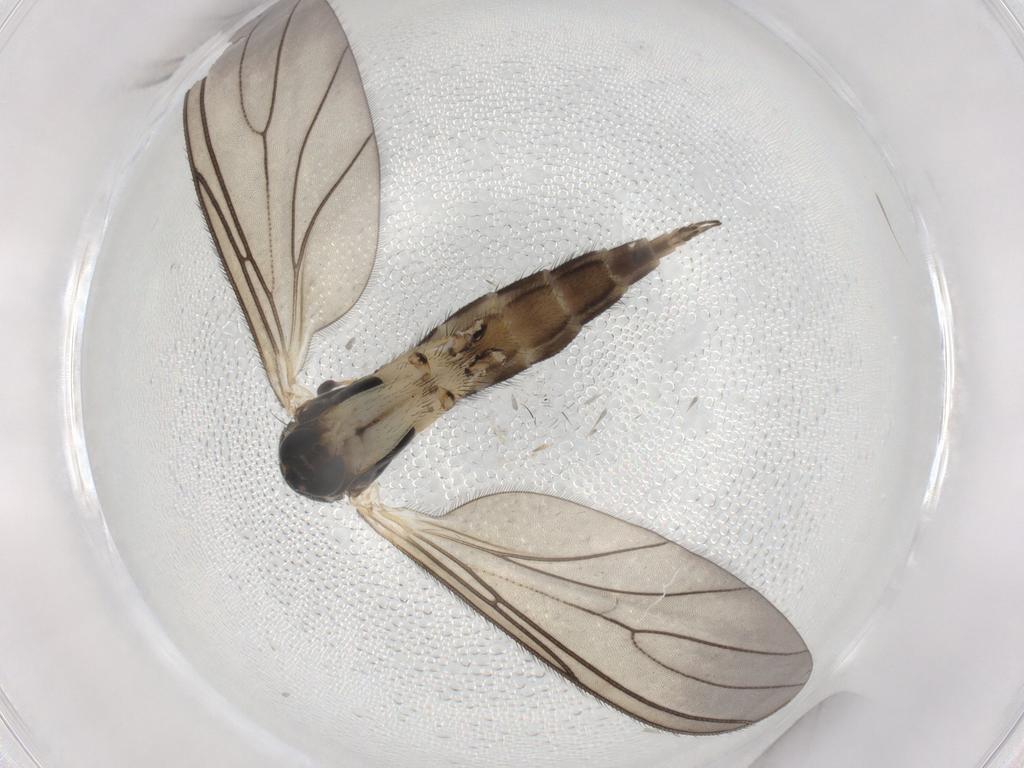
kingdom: Animalia
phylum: Arthropoda
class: Insecta
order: Diptera
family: Sciaridae
